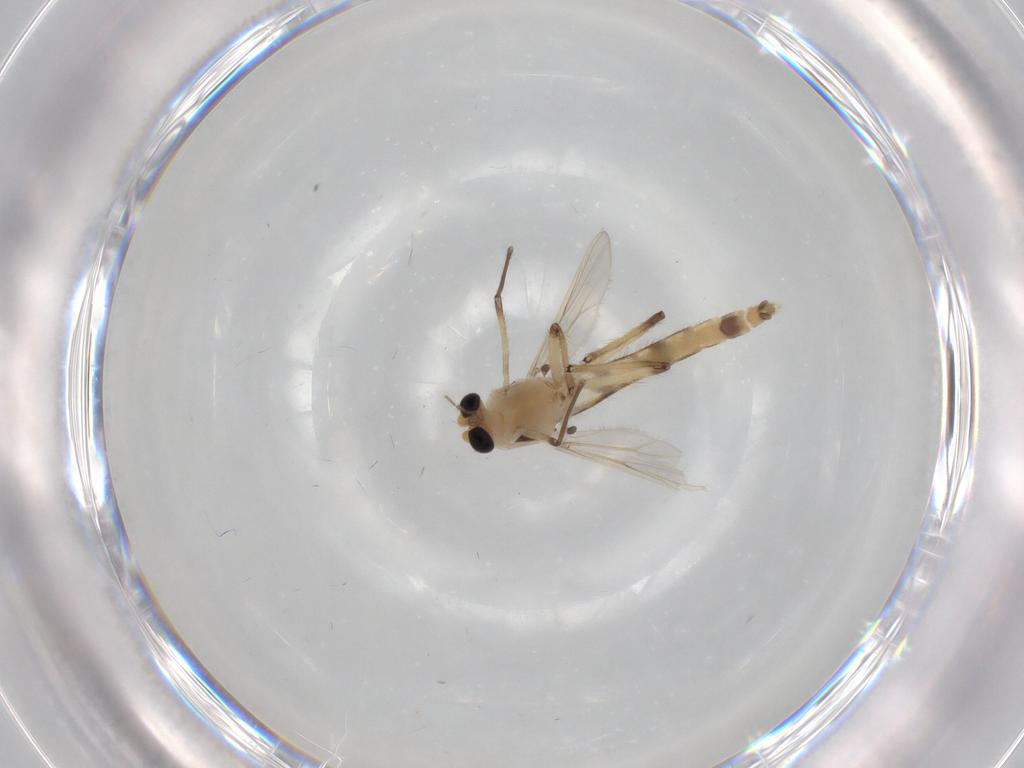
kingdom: Animalia
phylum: Arthropoda
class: Insecta
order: Diptera
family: Chironomidae
